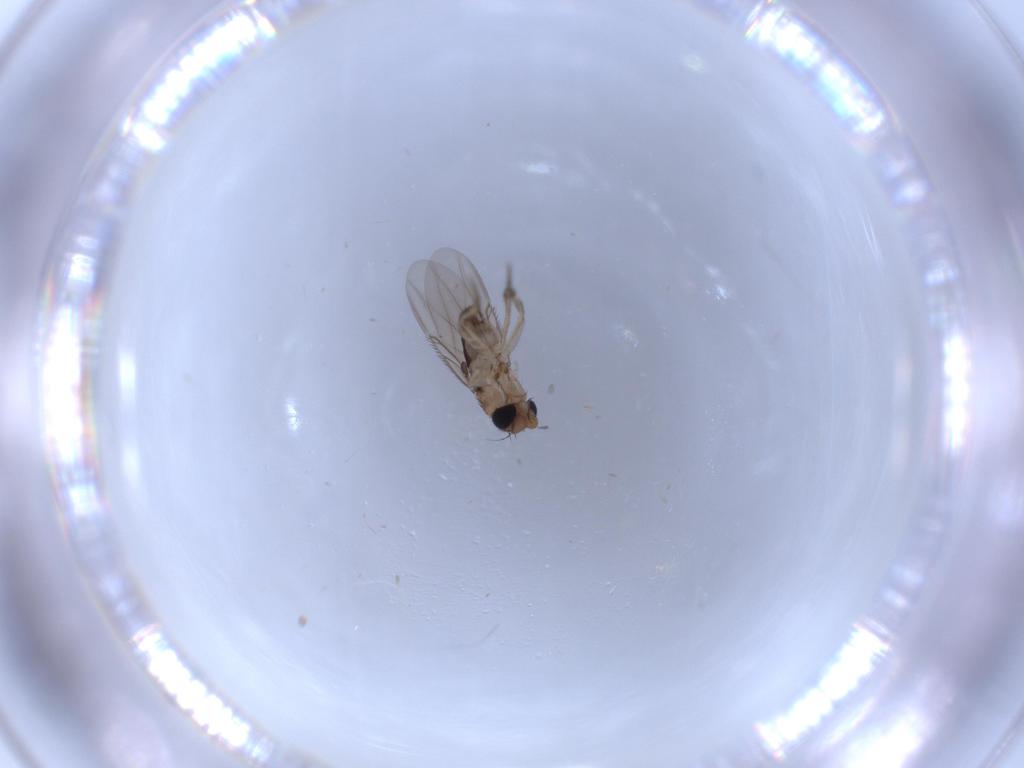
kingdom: Animalia
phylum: Arthropoda
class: Insecta
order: Diptera
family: Phoridae
